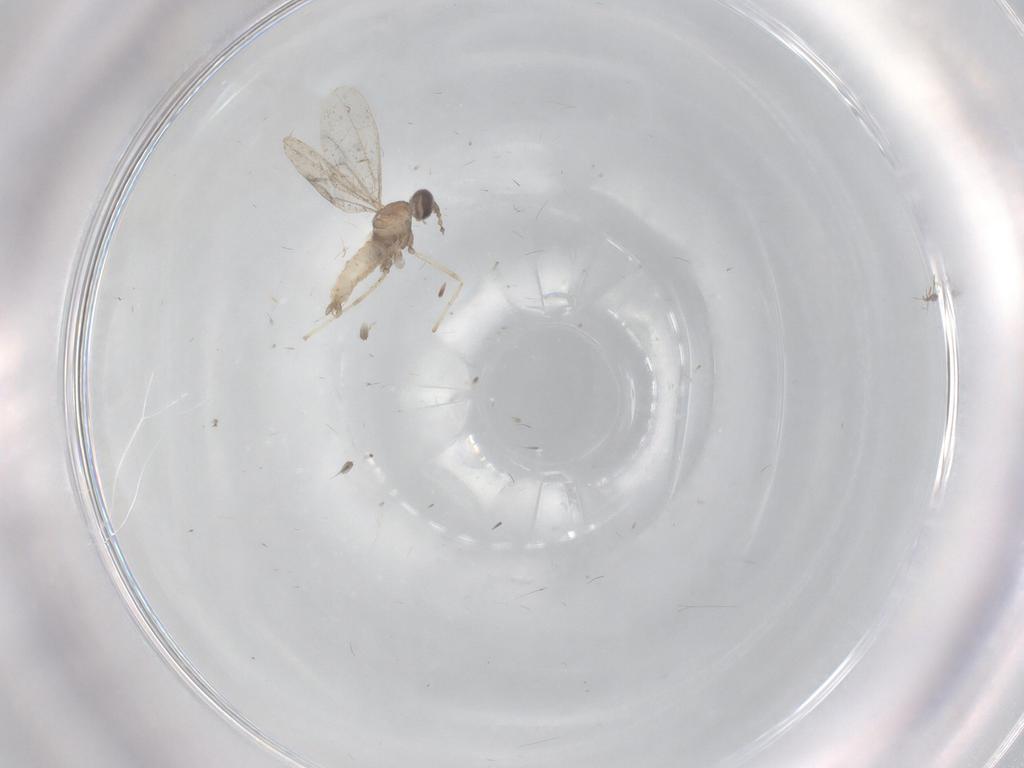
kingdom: Animalia
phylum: Arthropoda
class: Insecta
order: Diptera
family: Cecidomyiidae
